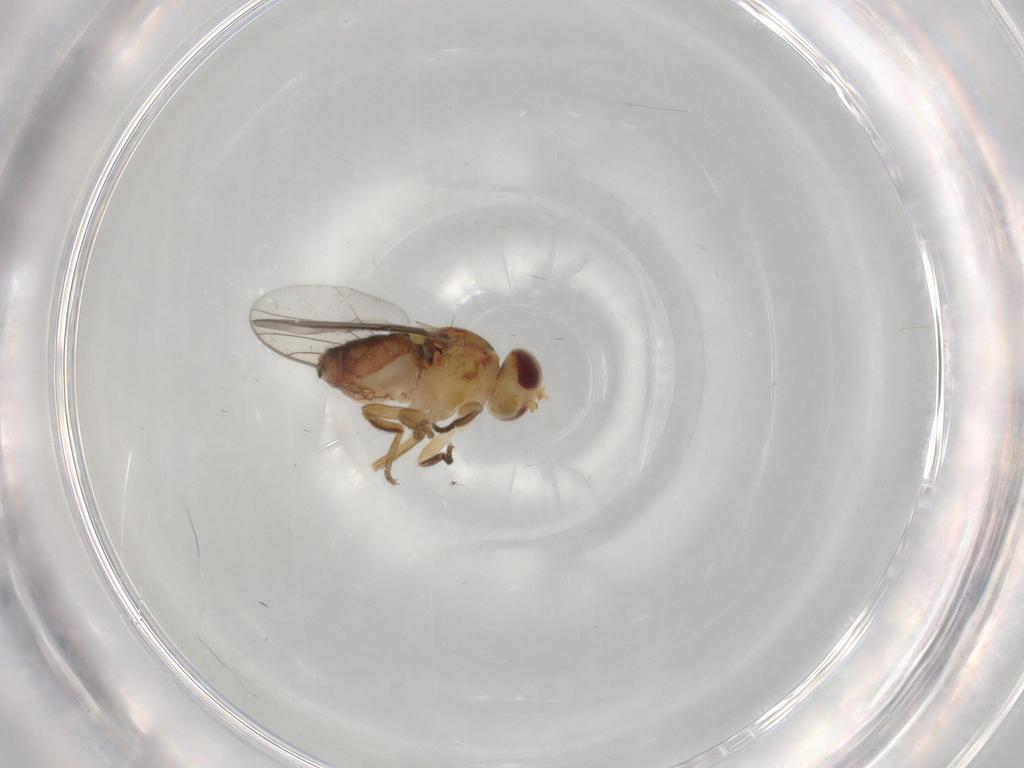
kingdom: Animalia
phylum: Arthropoda
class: Insecta
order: Diptera
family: Chloropidae
